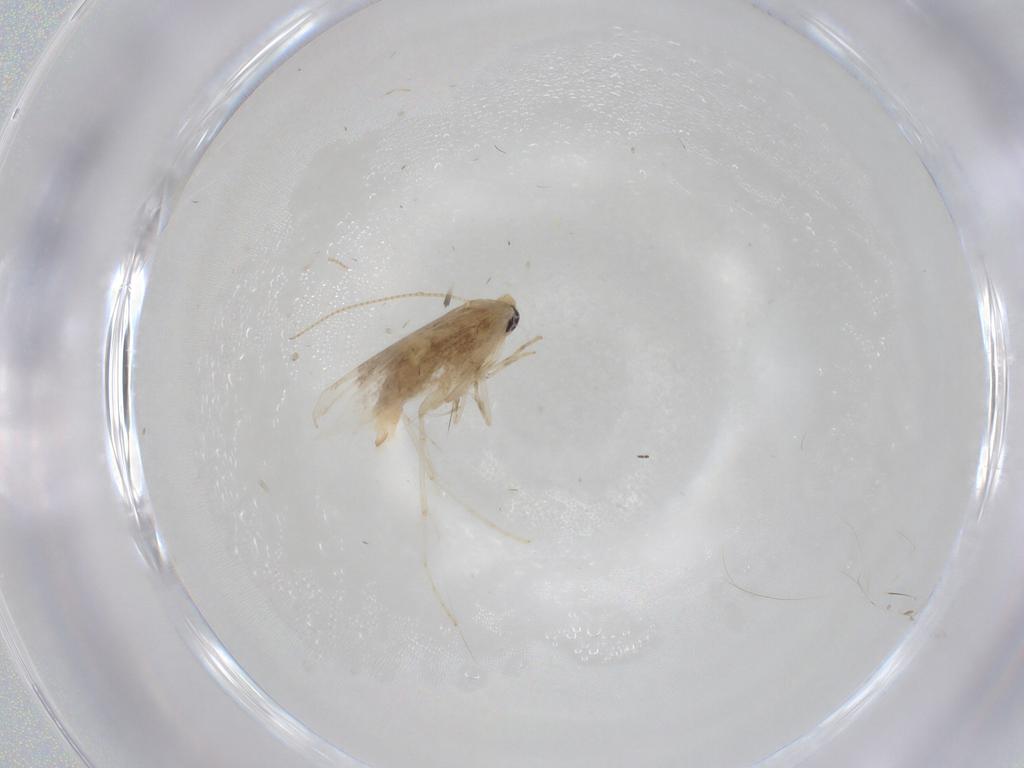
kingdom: Animalia
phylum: Arthropoda
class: Insecta
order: Lepidoptera
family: Gracillariidae
